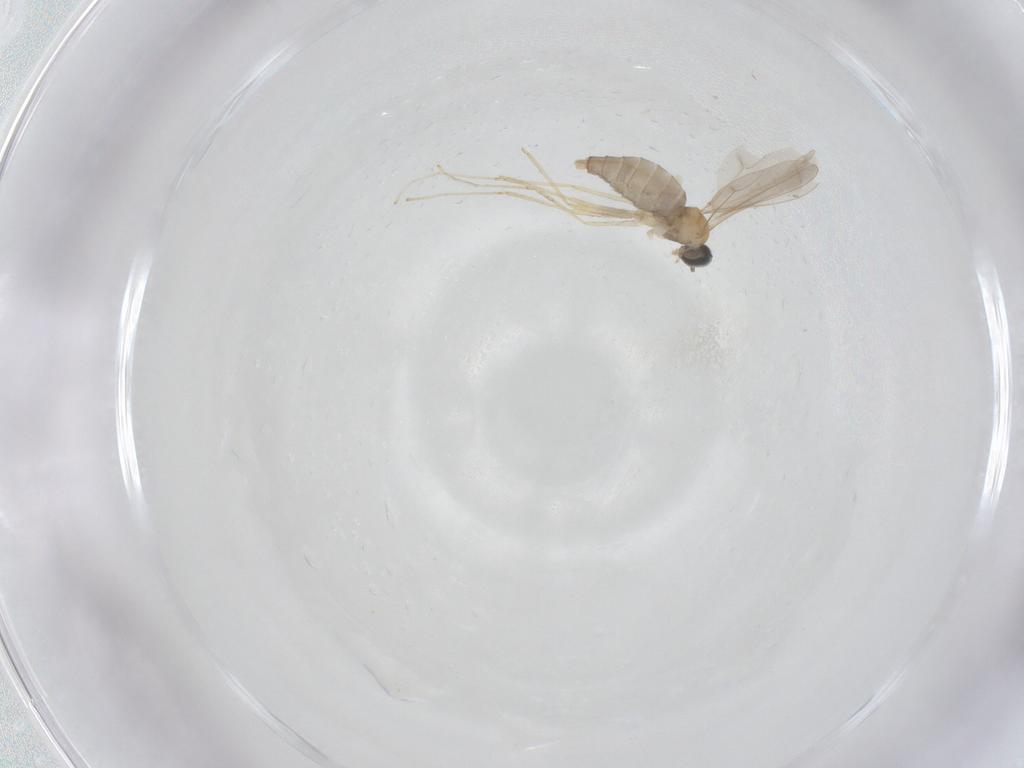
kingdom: Animalia
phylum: Arthropoda
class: Insecta
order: Diptera
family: Cecidomyiidae
